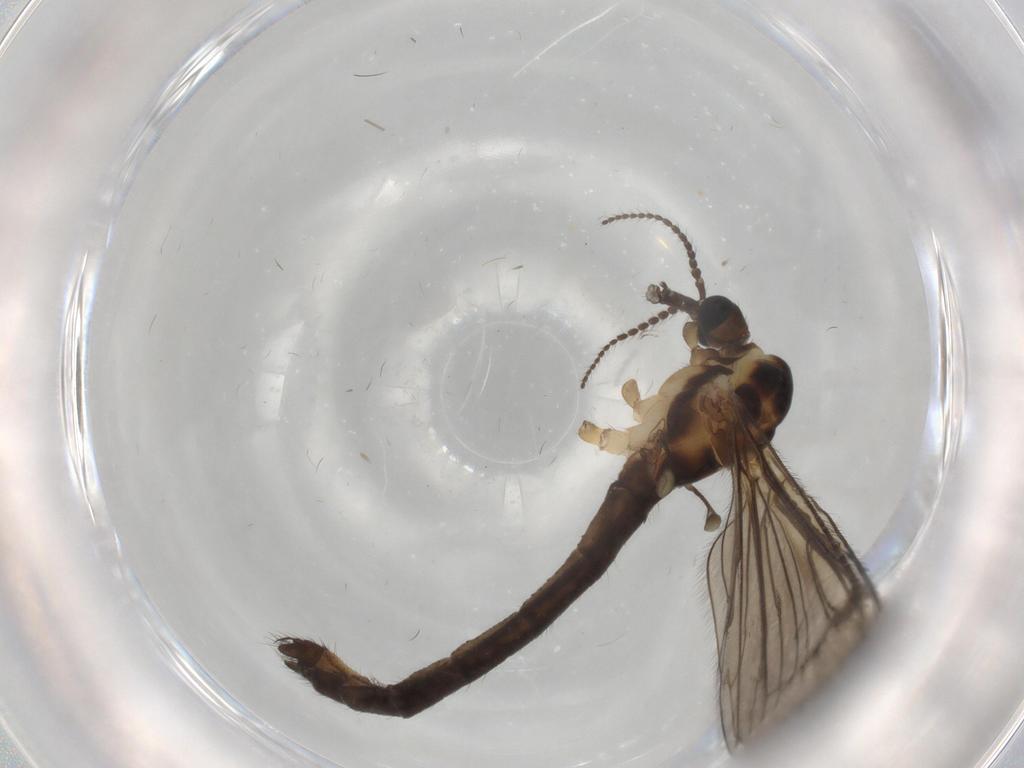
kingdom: Animalia
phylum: Arthropoda
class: Insecta
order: Diptera
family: Limoniidae
